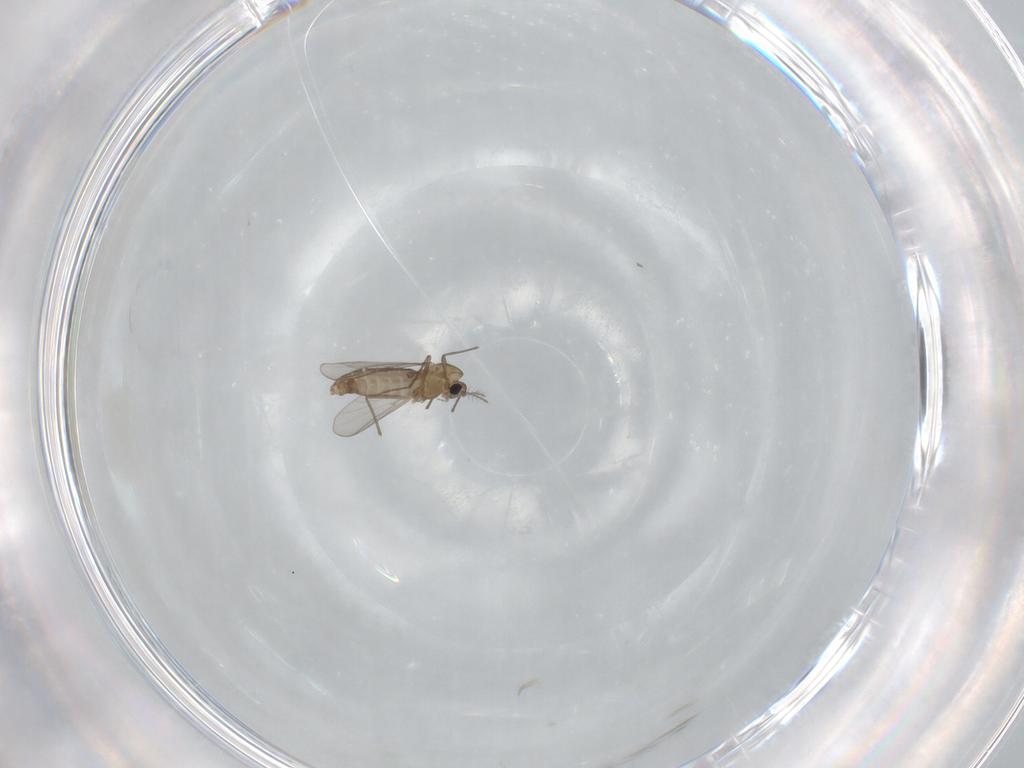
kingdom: Animalia
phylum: Arthropoda
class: Insecta
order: Diptera
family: Chironomidae
